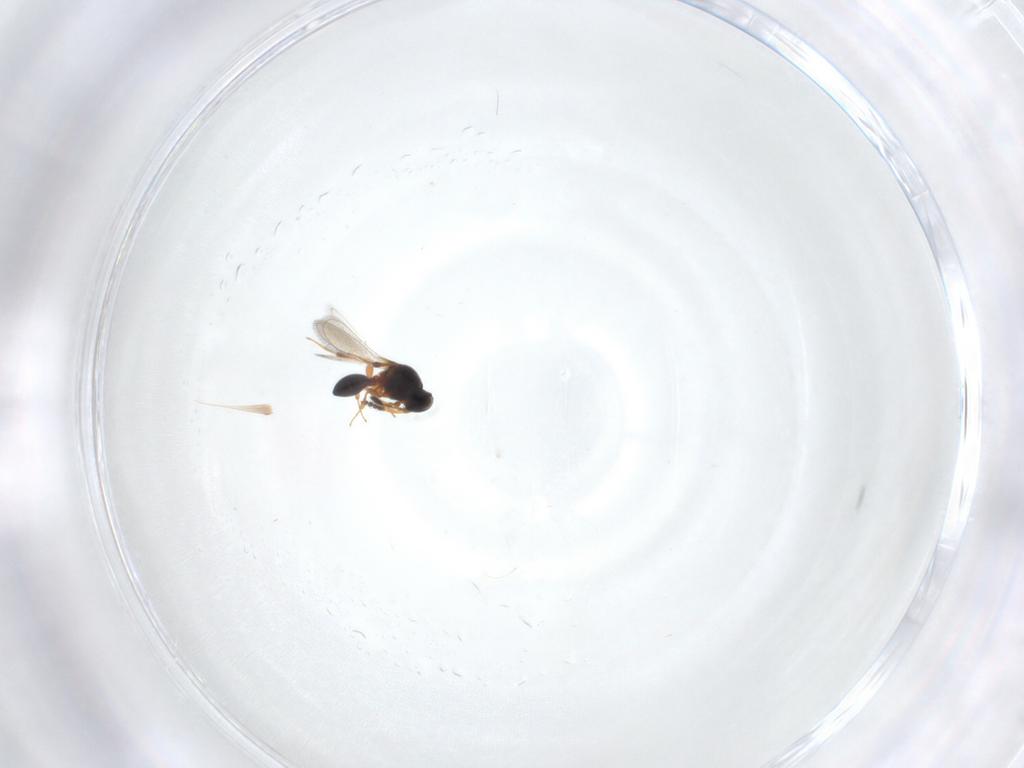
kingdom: Animalia
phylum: Arthropoda
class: Insecta
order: Hymenoptera
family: Platygastridae
